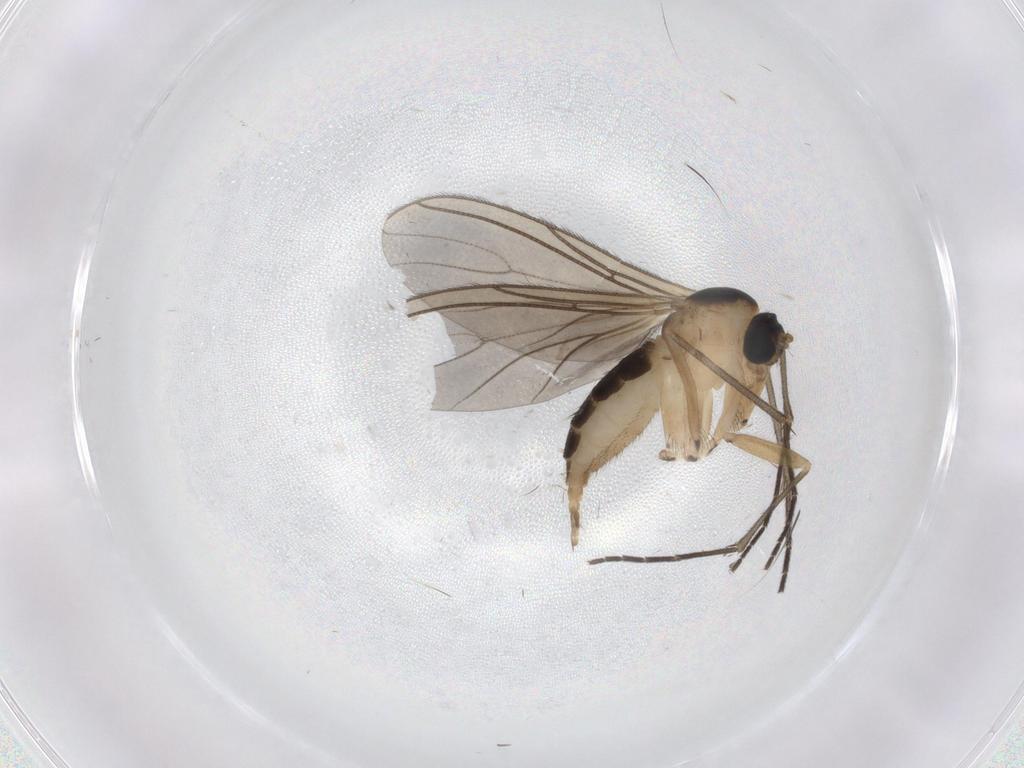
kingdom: Animalia
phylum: Arthropoda
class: Insecta
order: Diptera
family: Sciaridae
